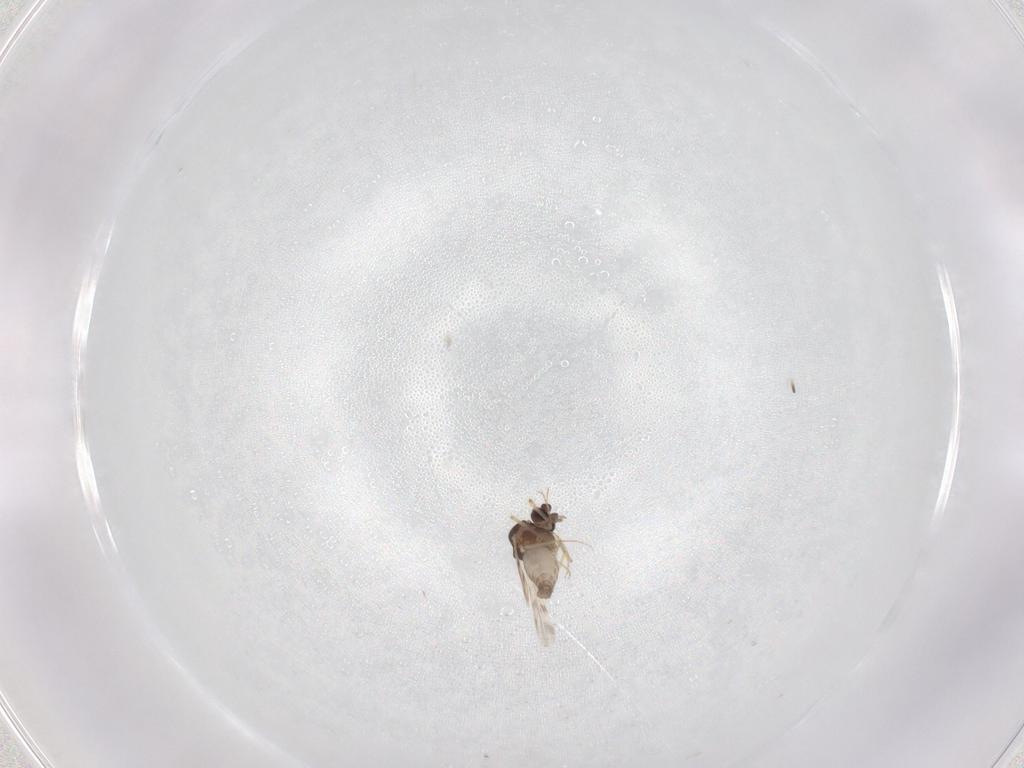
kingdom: Animalia
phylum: Arthropoda
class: Insecta
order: Diptera
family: Ceratopogonidae
